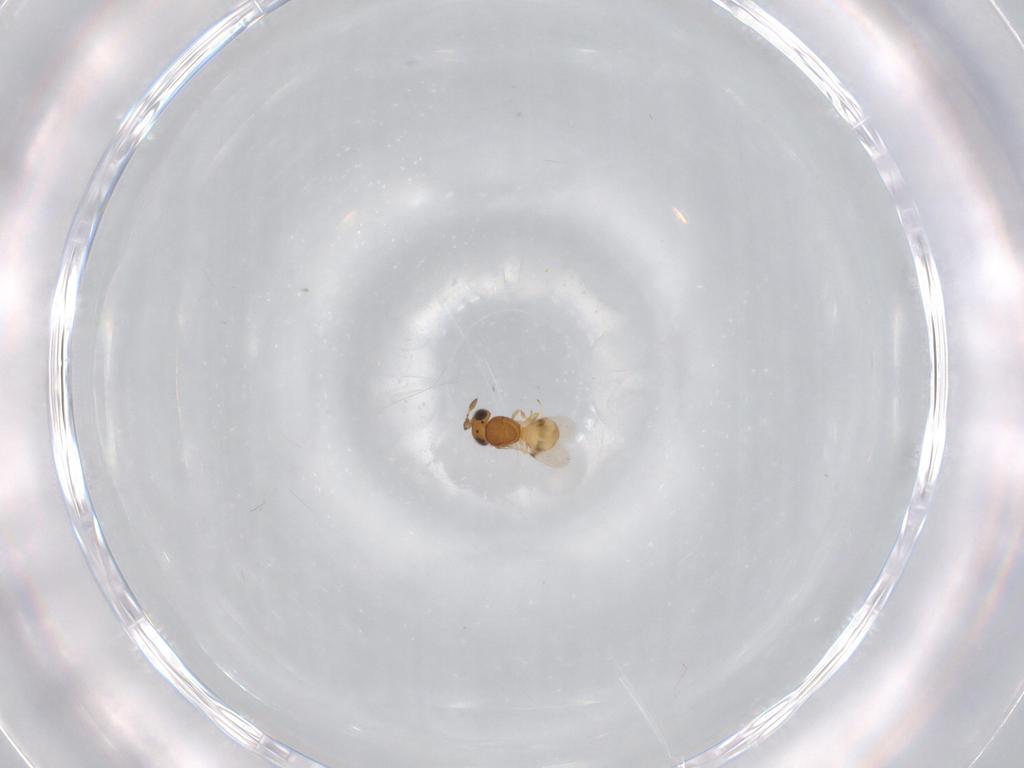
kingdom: Animalia
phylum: Arthropoda
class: Insecta
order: Hymenoptera
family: Scelionidae
